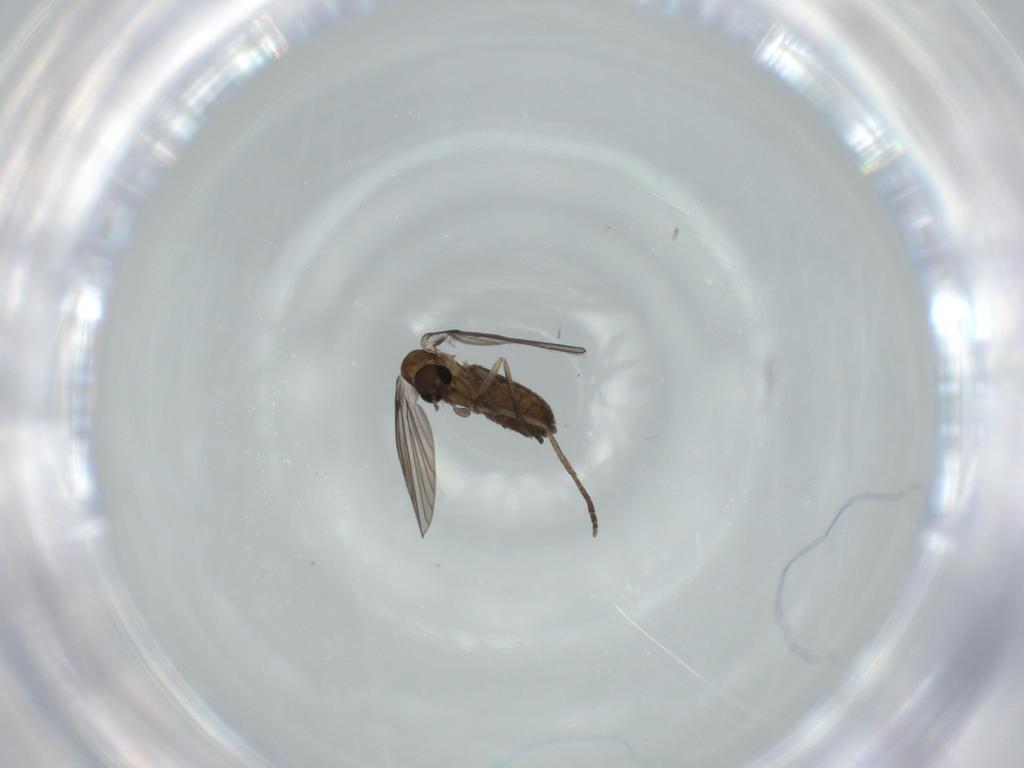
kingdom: Animalia
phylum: Arthropoda
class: Insecta
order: Diptera
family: Psychodidae
